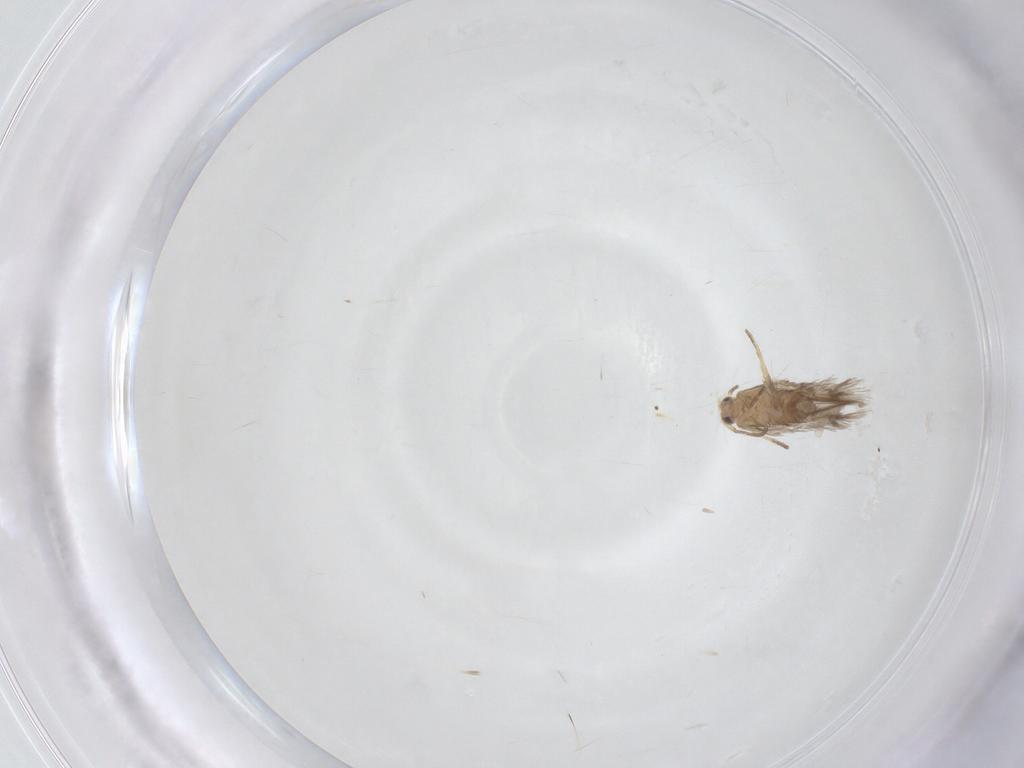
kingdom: Animalia
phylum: Arthropoda
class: Insecta
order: Lepidoptera
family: Nepticulidae
